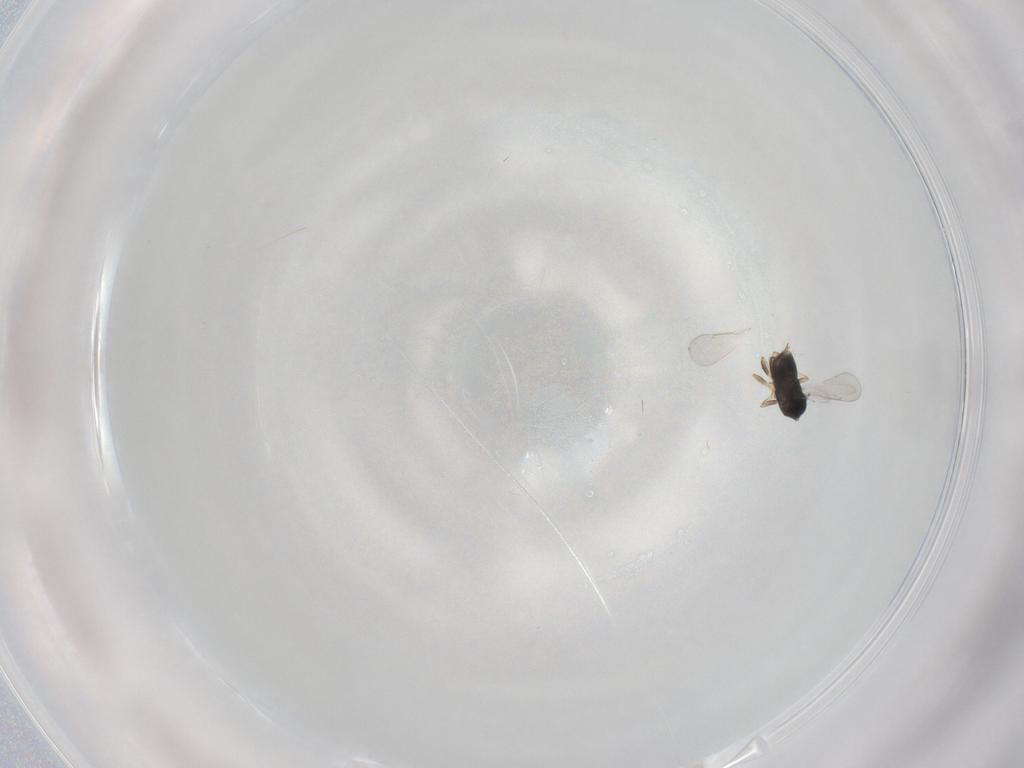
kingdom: Animalia
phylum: Arthropoda
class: Insecta
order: Hymenoptera
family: Aphelinidae
